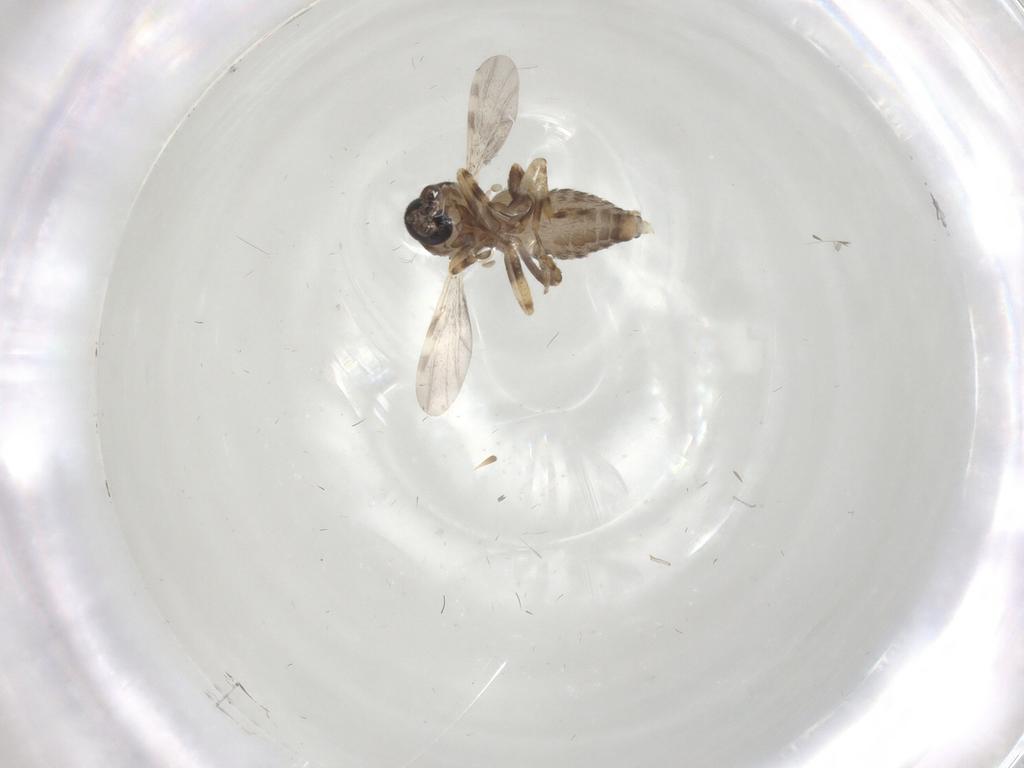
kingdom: Animalia
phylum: Arthropoda
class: Insecta
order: Diptera
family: Ceratopogonidae
